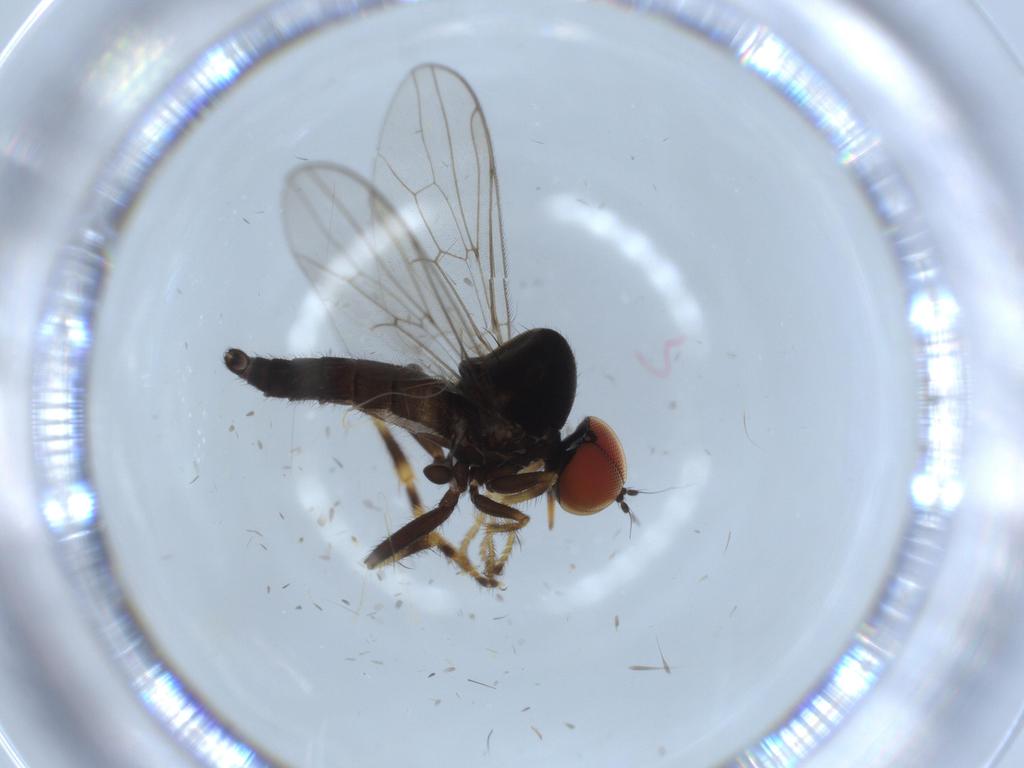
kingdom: Animalia
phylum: Arthropoda
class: Insecta
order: Diptera
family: Hybotidae
